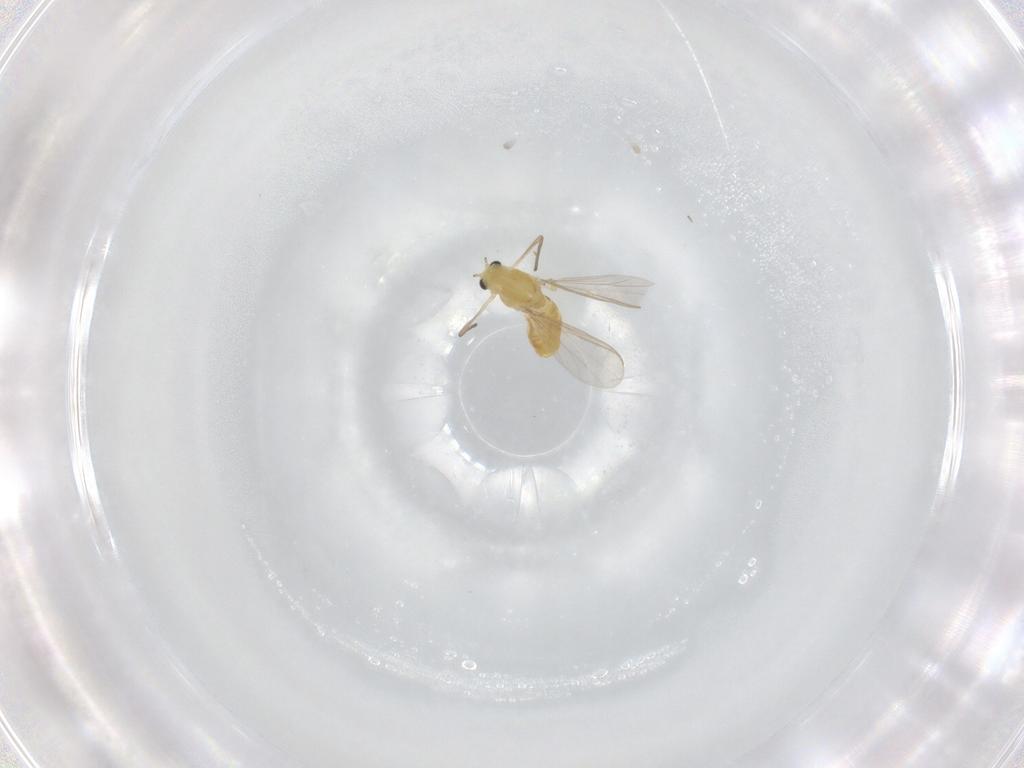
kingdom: Animalia
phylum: Arthropoda
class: Insecta
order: Diptera
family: Chironomidae
